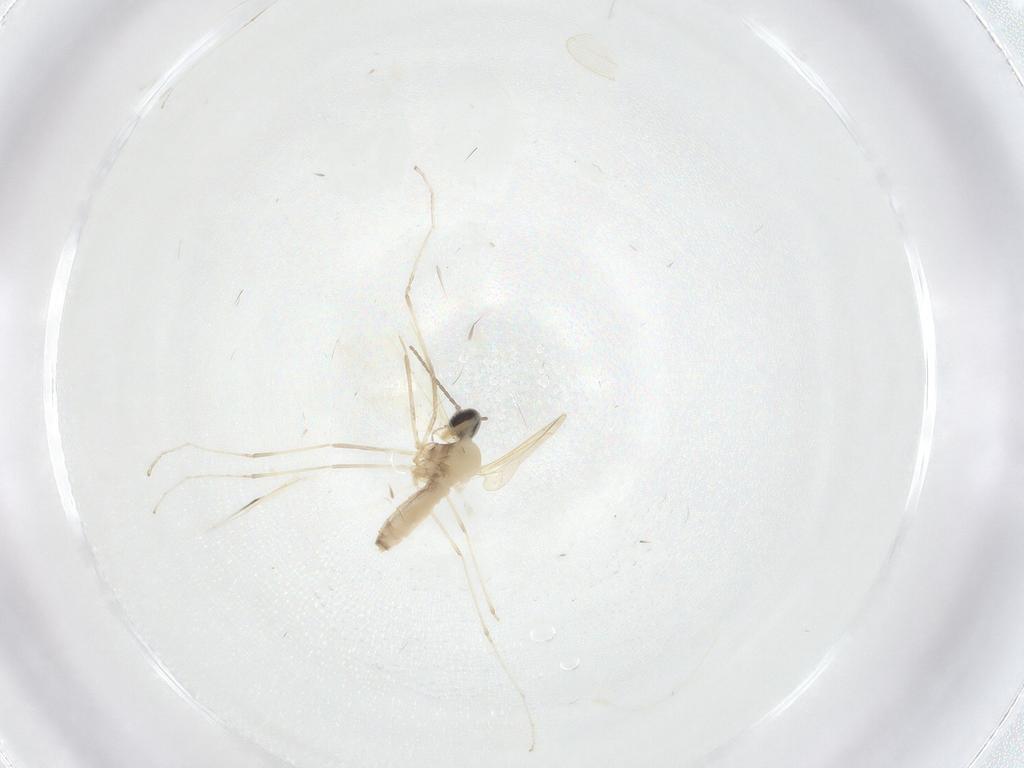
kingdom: Animalia
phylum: Arthropoda
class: Insecta
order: Diptera
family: Cecidomyiidae
